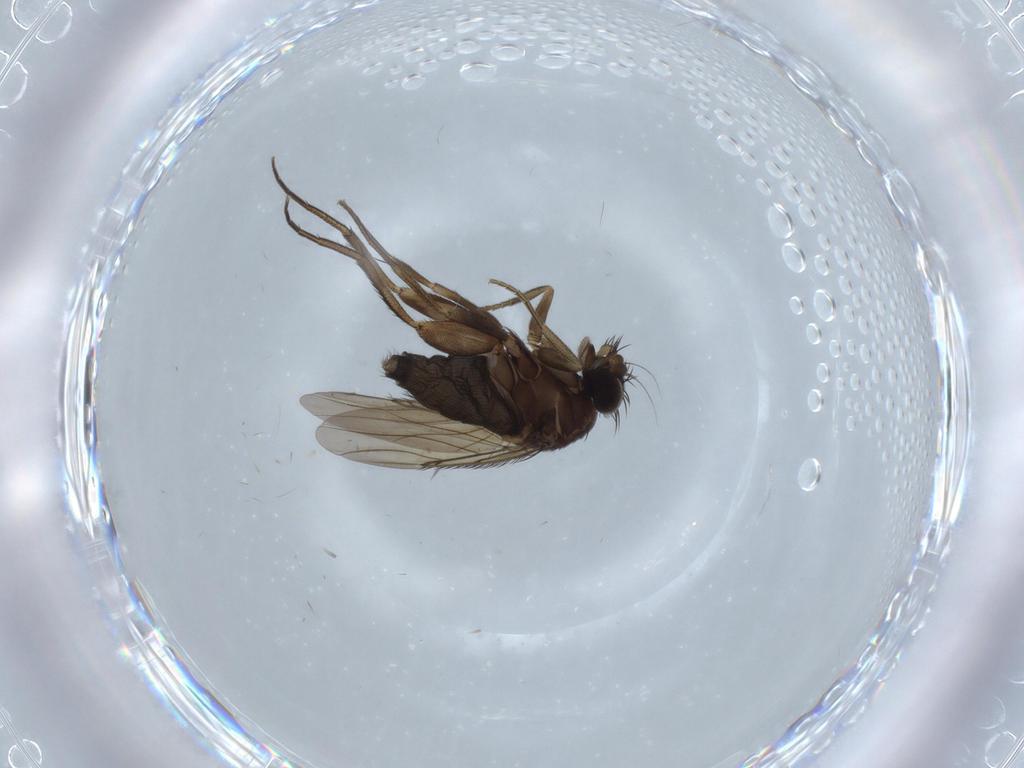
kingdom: Animalia
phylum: Arthropoda
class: Insecta
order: Diptera
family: Phoridae
